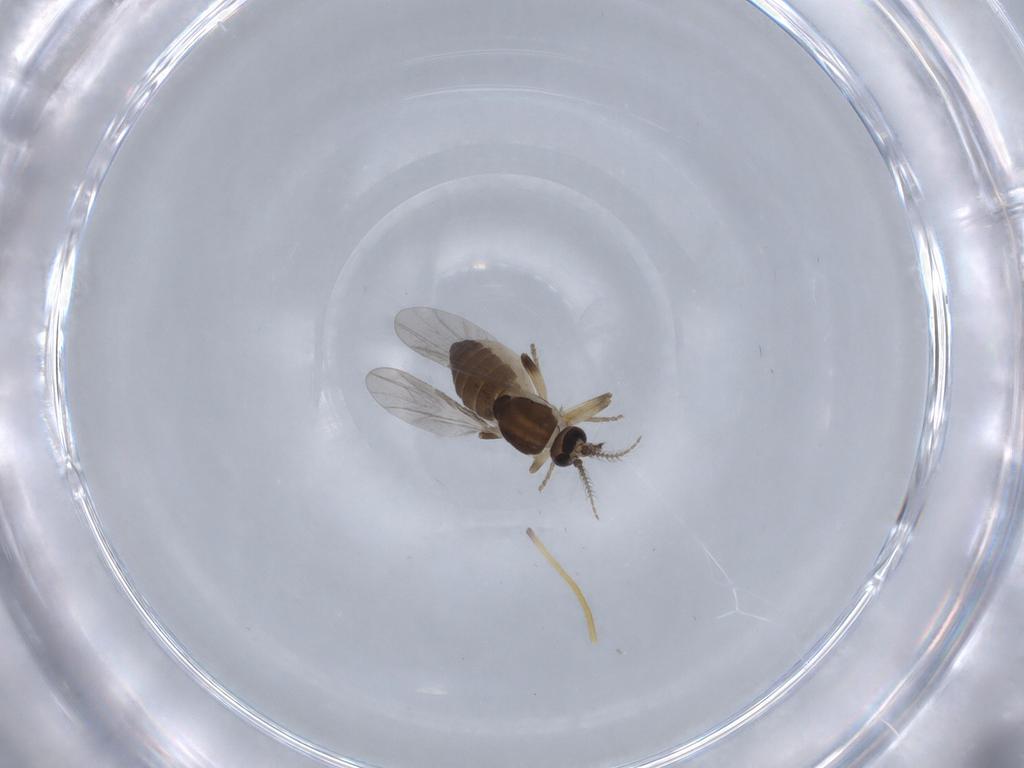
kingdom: Animalia
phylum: Arthropoda
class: Insecta
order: Diptera
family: Ceratopogonidae
